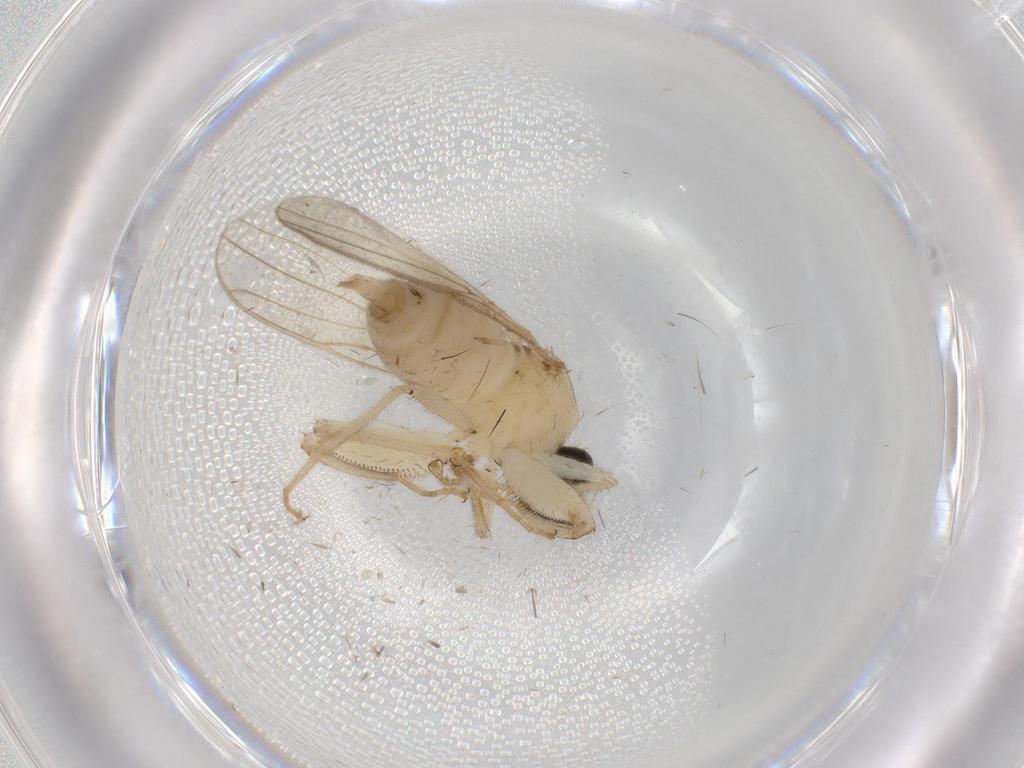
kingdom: Animalia
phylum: Arthropoda
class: Insecta
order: Diptera
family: Hybotidae
